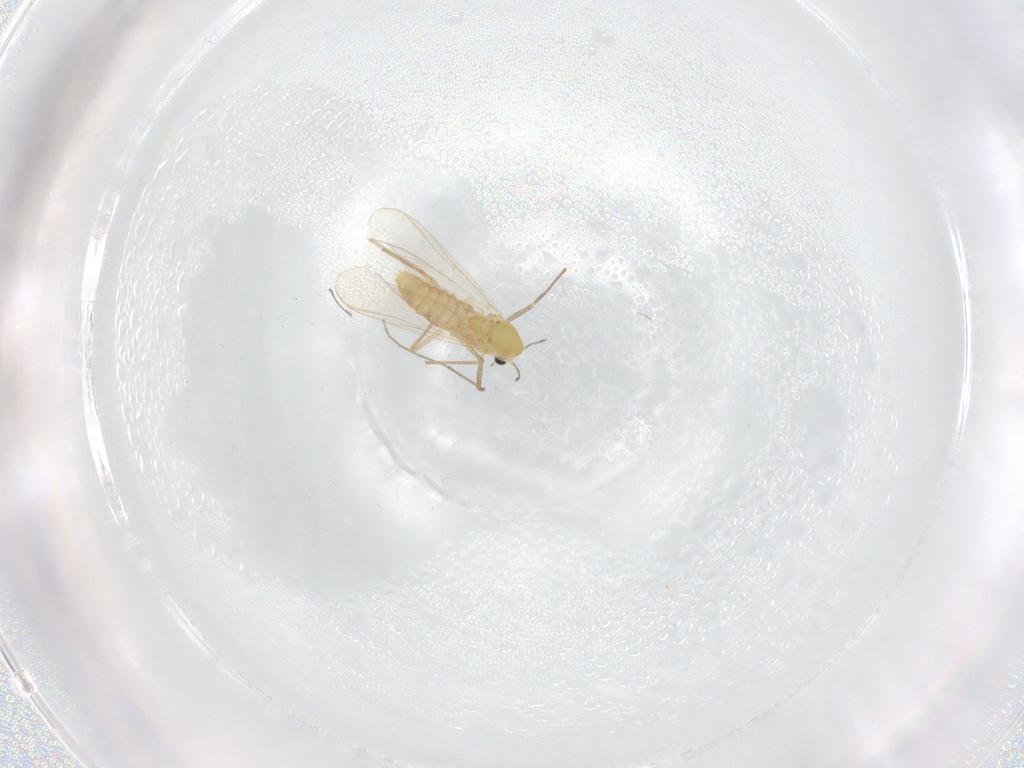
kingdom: Animalia
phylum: Arthropoda
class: Insecta
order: Diptera
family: Chironomidae
